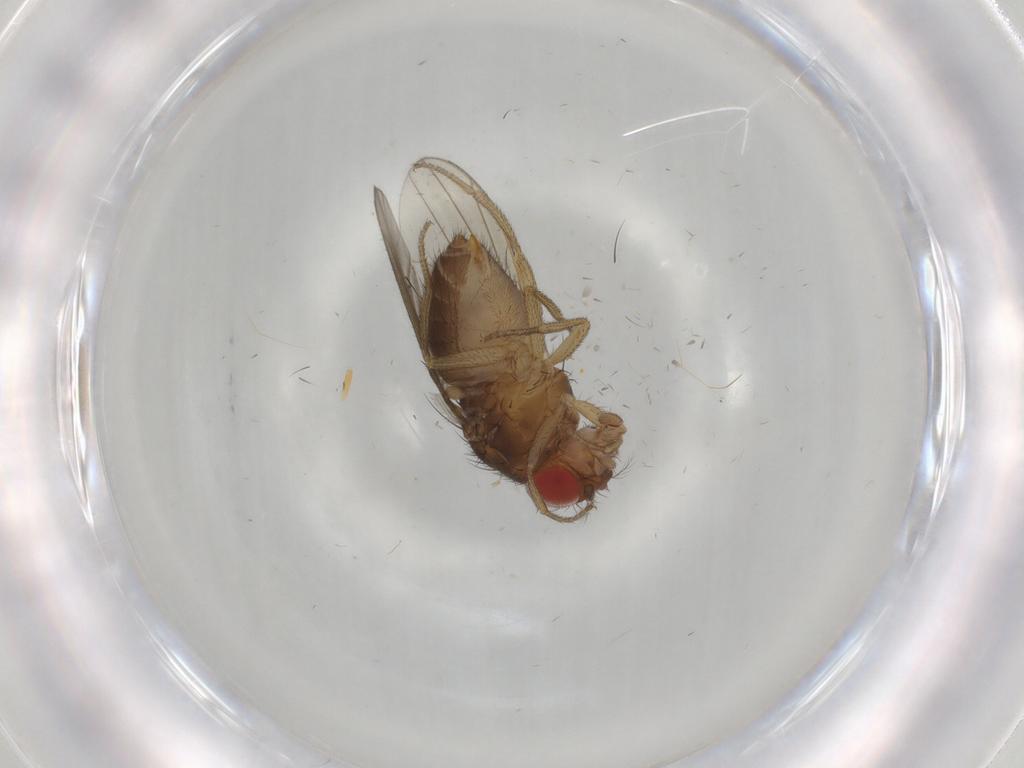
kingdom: Animalia
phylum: Arthropoda
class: Insecta
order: Diptera
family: Drosophilidae
